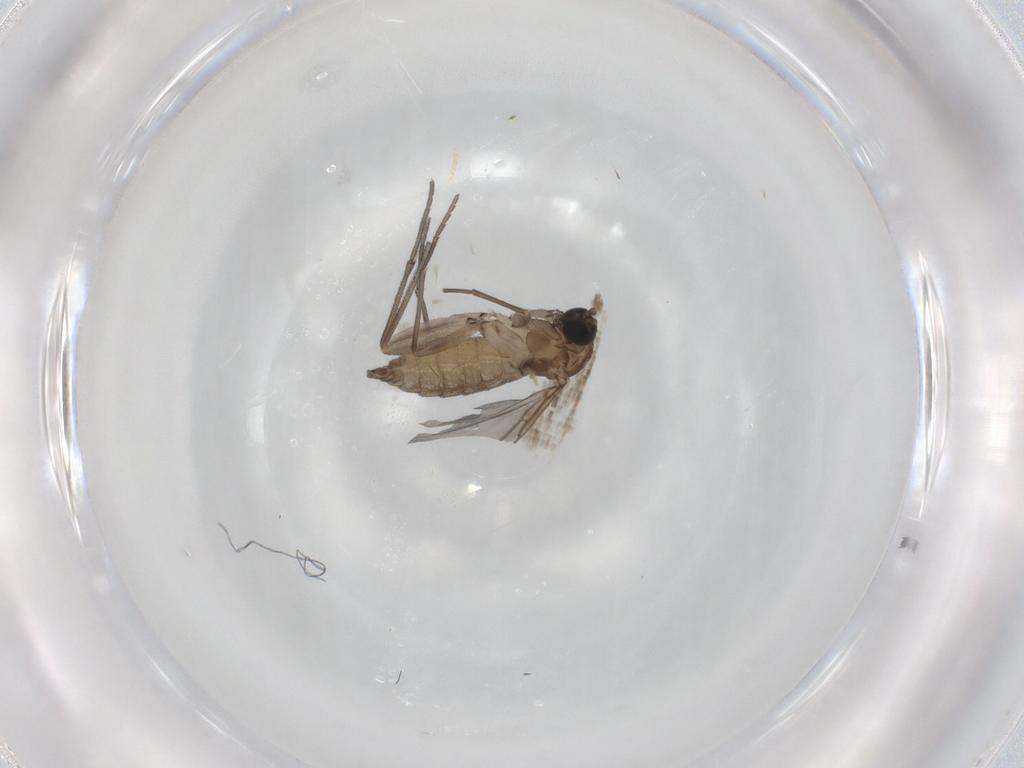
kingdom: Animalia
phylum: Arthropoda
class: Insecta
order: Diptera
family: Sciaridae
